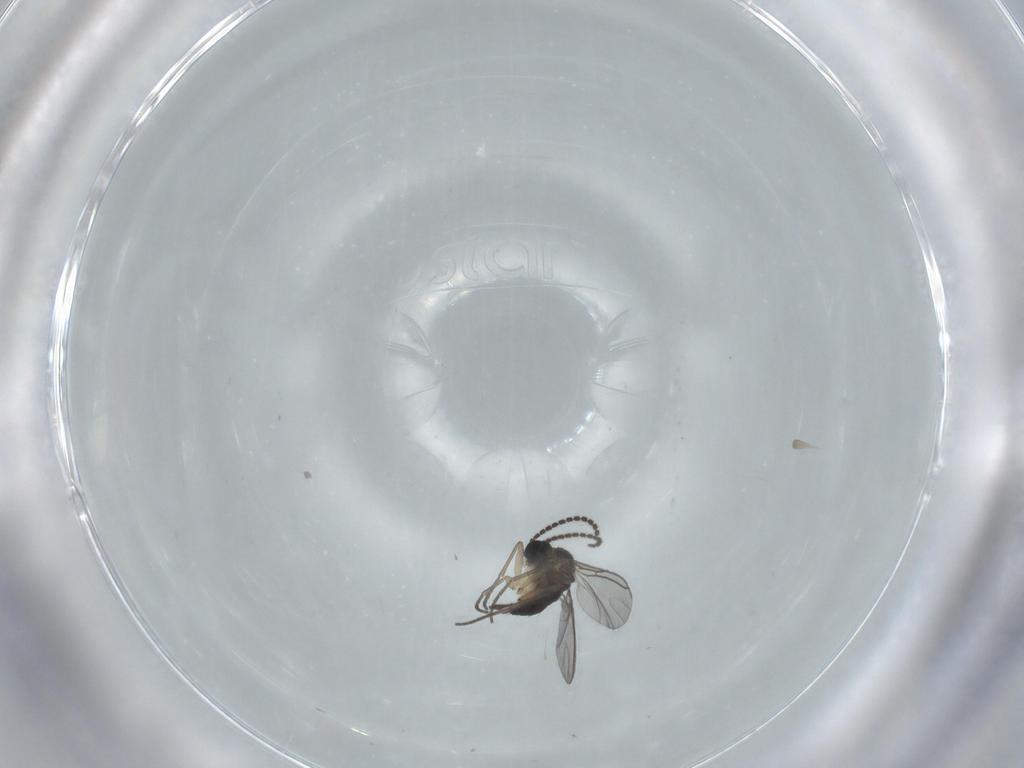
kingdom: Animalia
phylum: Arthropoda
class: Insecta
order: Diptera
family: Sciaridae
